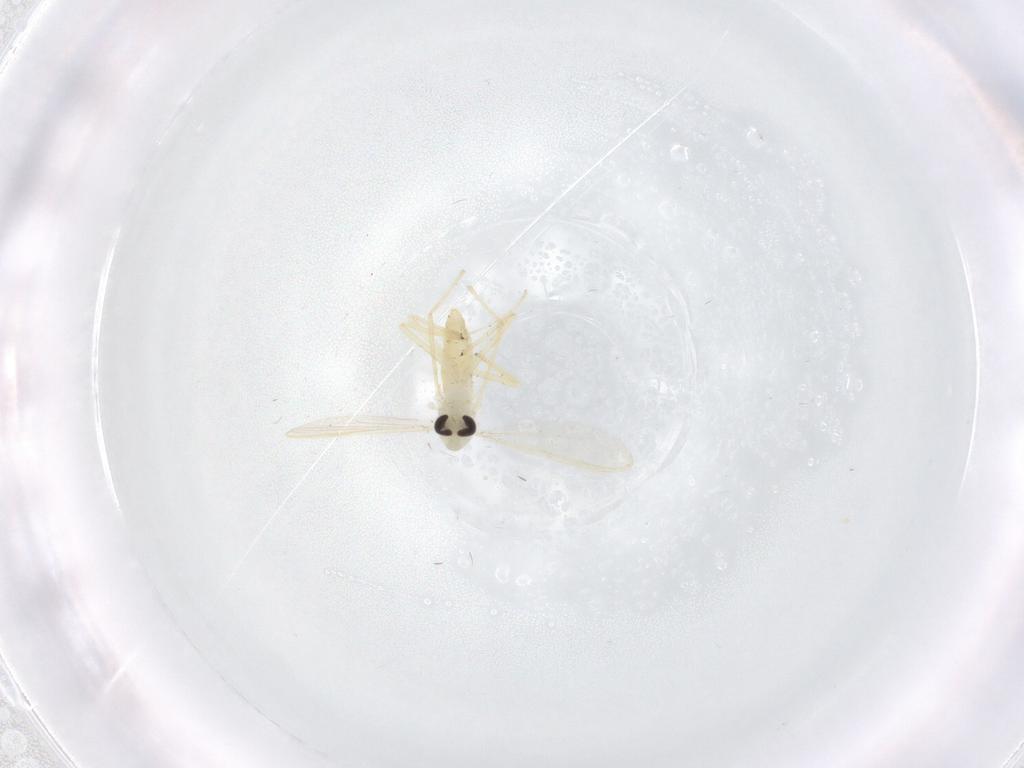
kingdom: Animalia
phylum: Arthropoda
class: Insecta
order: Diptera
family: Chironomidae
